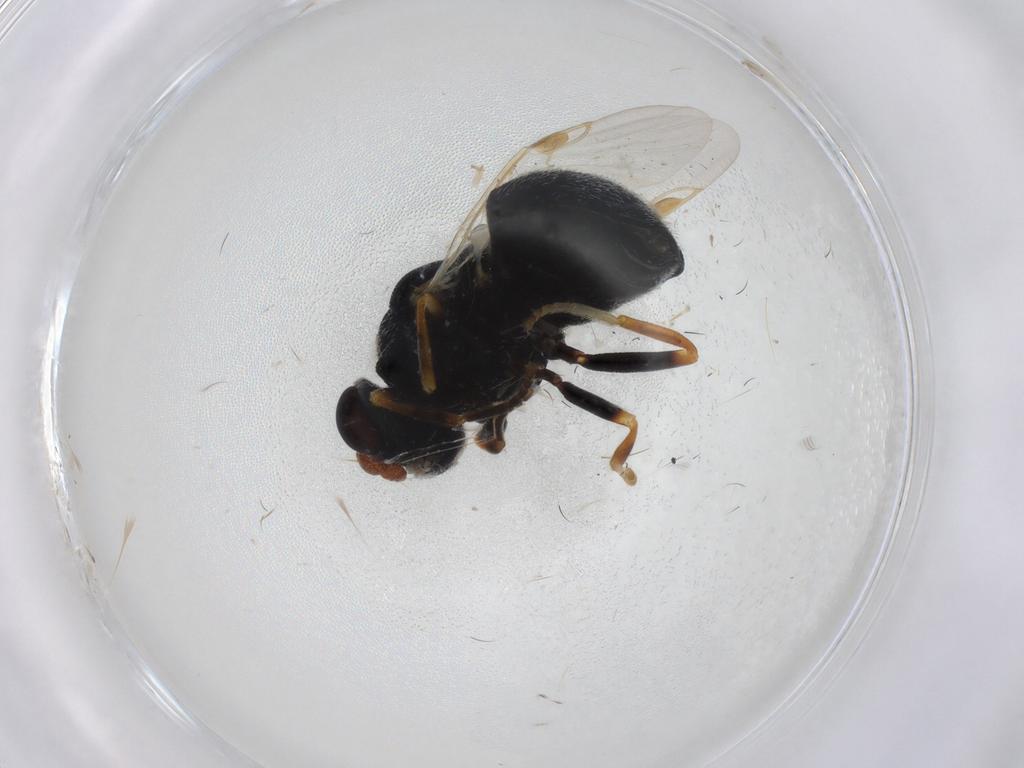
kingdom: Animalia
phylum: Arthropoda
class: Insecta
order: Diptera
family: Stratiomyidae
